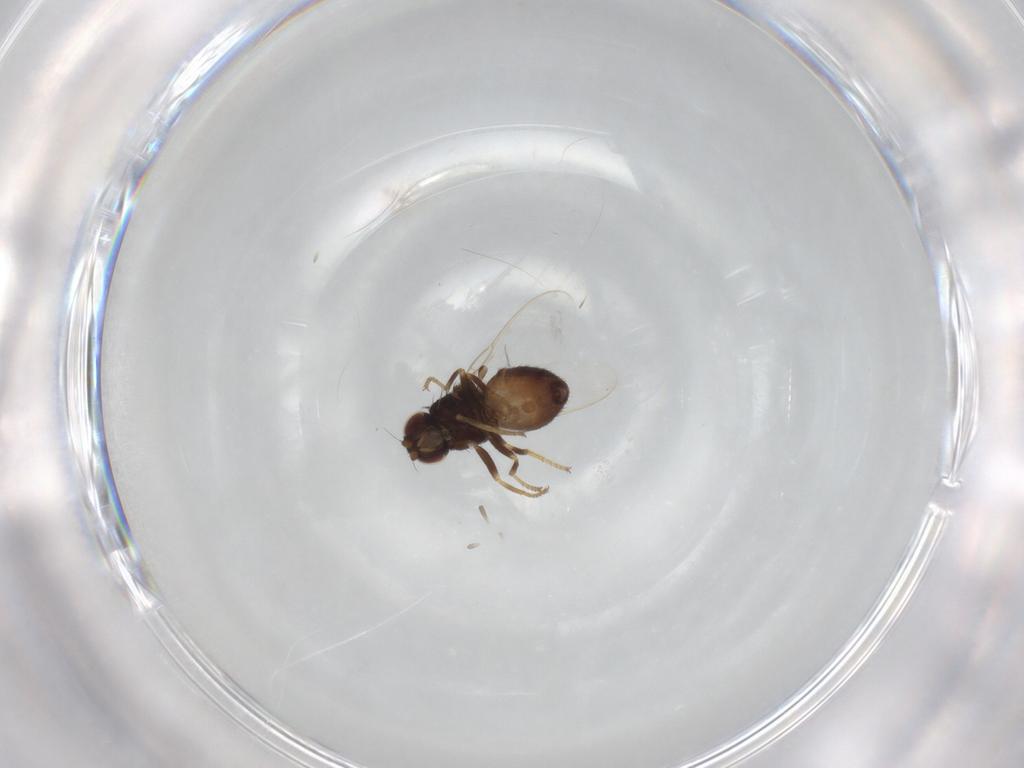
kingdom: Animalia
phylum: Arthropoda
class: Insecta
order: Diptera
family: Chloropidae
